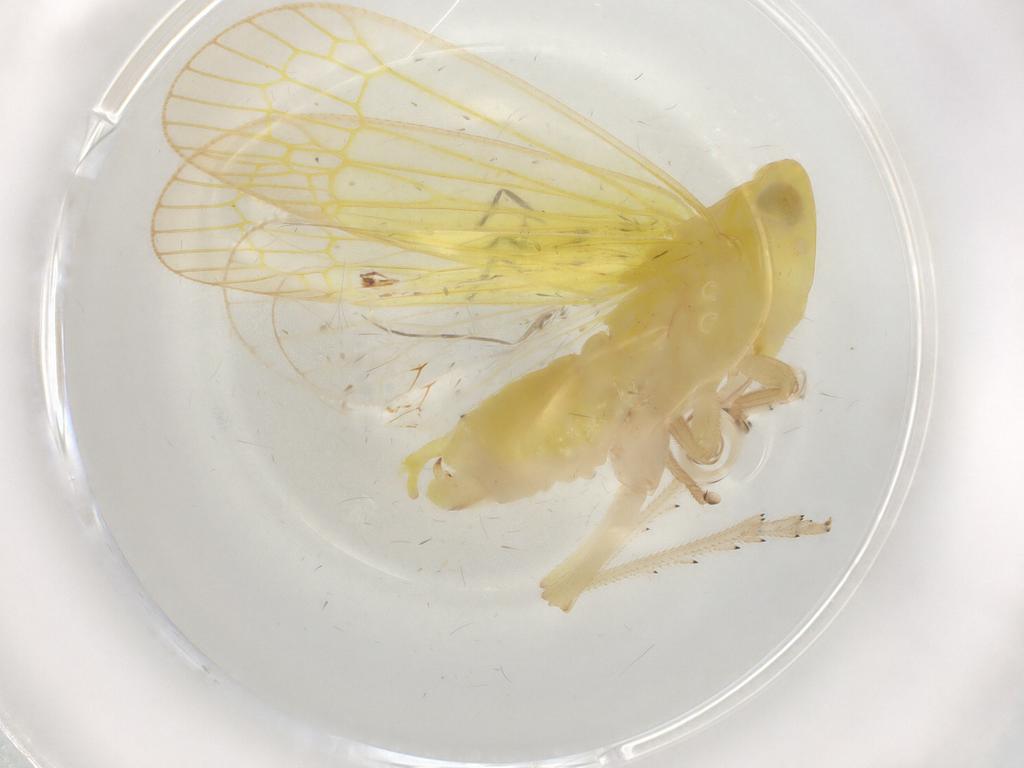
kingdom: Animalia
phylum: Arthropoda
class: Insecta
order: Hemiptera
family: Tropiduchidae
